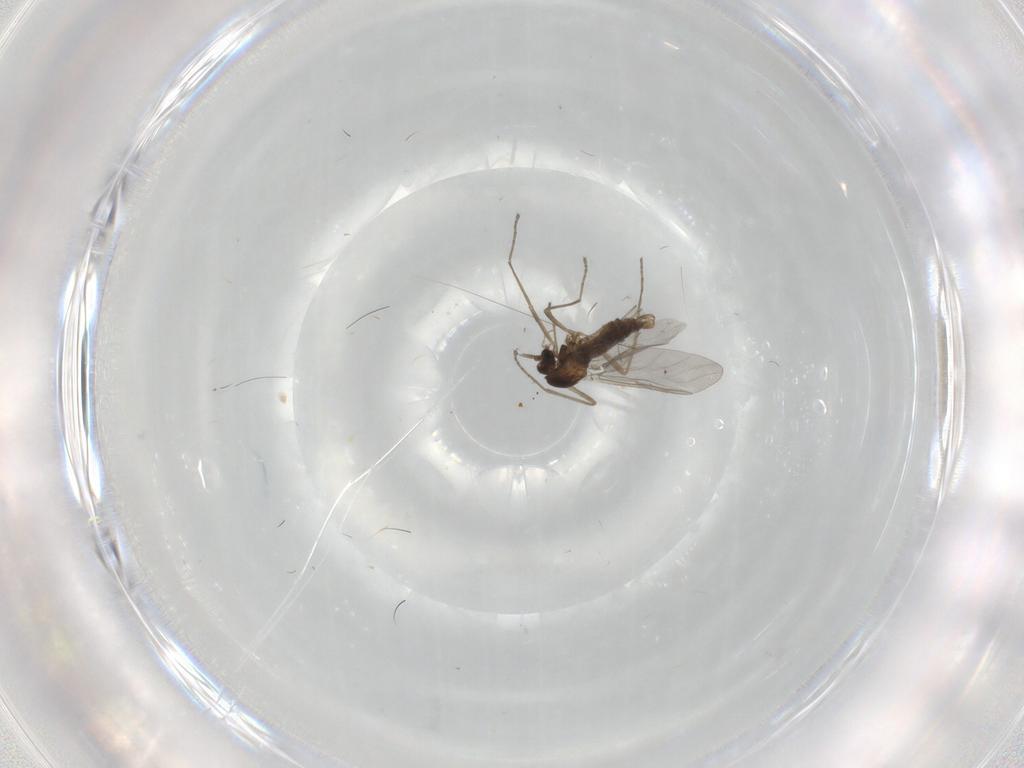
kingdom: Animalia
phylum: Arthropoda
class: Insecta
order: Diptera
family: Cecidomyiidae
